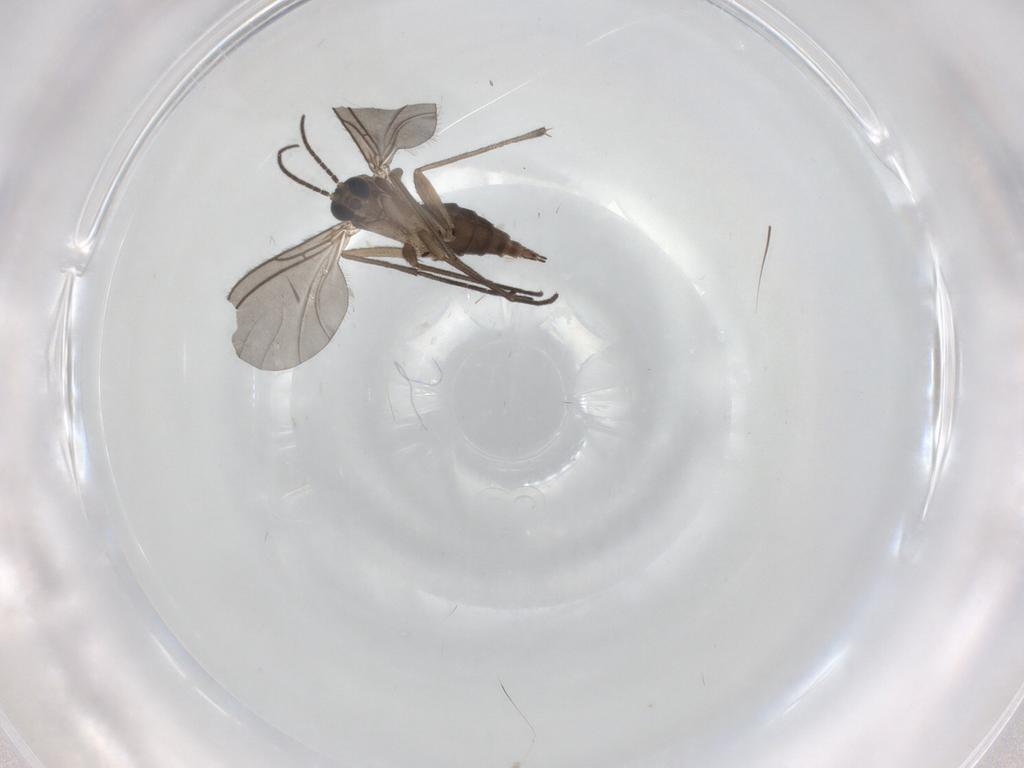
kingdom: Animalia
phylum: Arthropoda
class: Insecta
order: Diptera
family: Sciaridae
